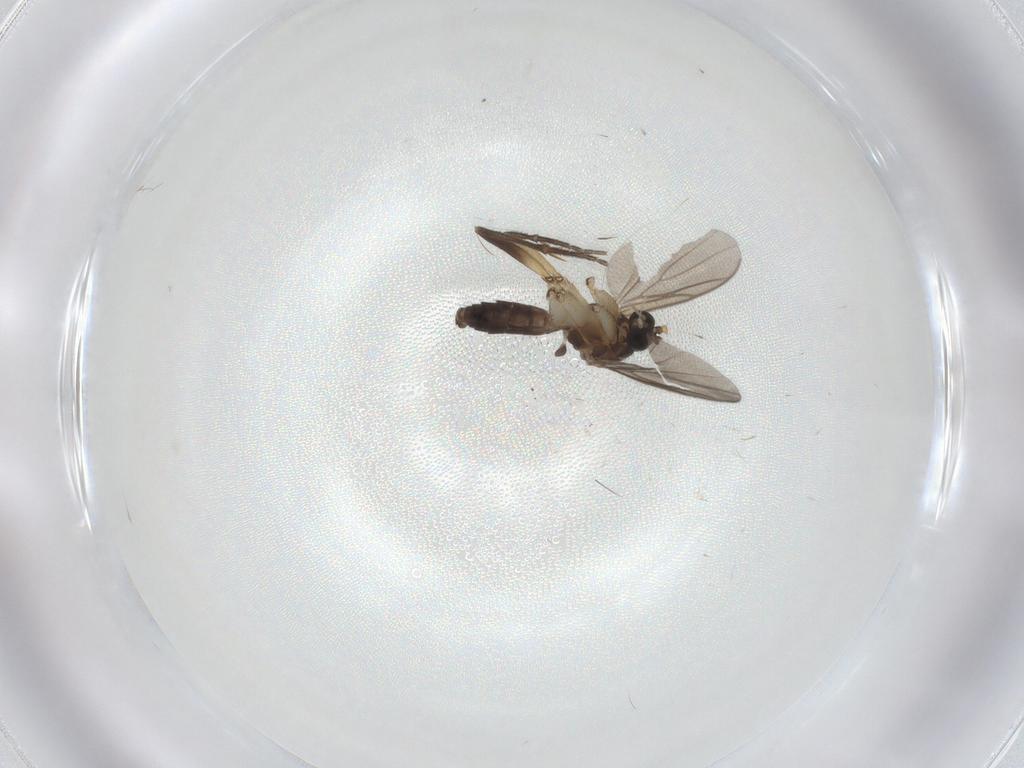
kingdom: Animalia
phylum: Arthropoda
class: Insecta
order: Diptera
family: Mycetophilidae
